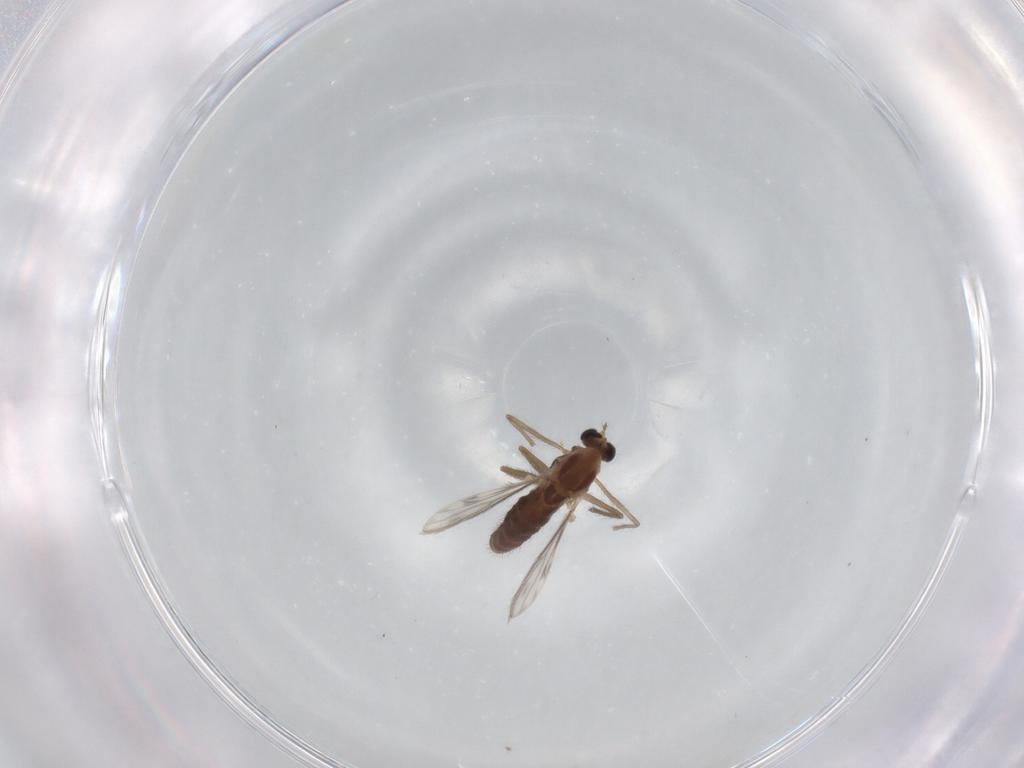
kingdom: Animalia
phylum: Arthropoda
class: Insecta
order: Diptera
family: Chironomidae
